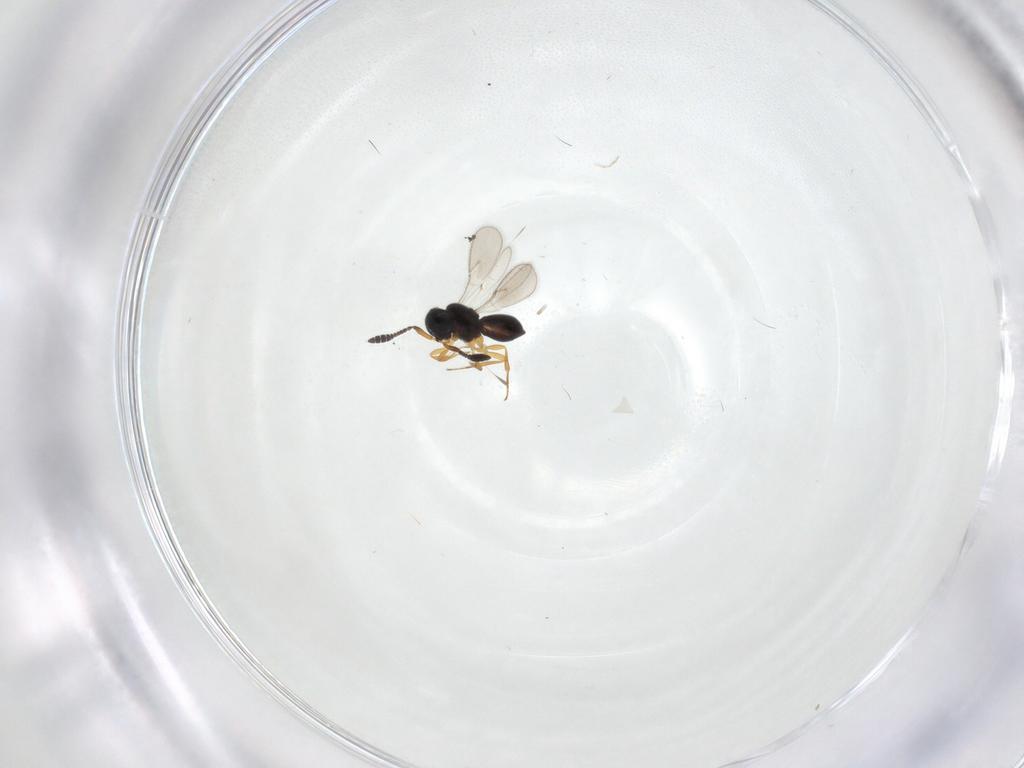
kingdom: Animalia
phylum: Arthropoda
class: Insecta
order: Hymenoptera
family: Scelionidae
